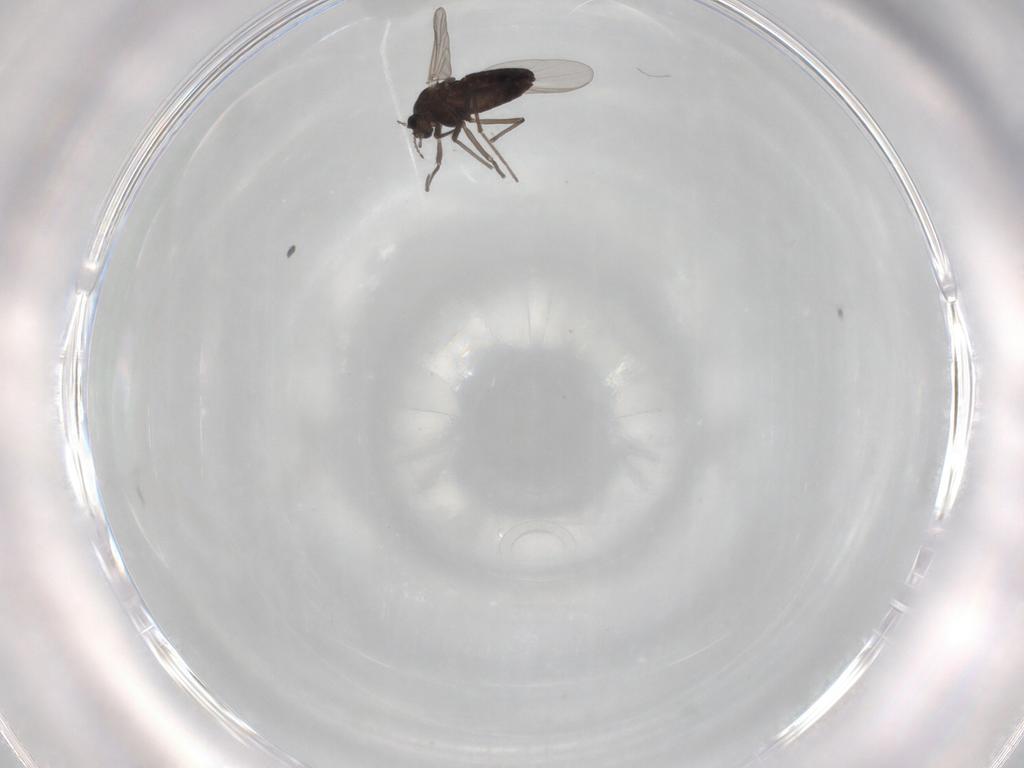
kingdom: Animalia
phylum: Arthropoda
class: Insecta
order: Diptera
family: Chironomidae
